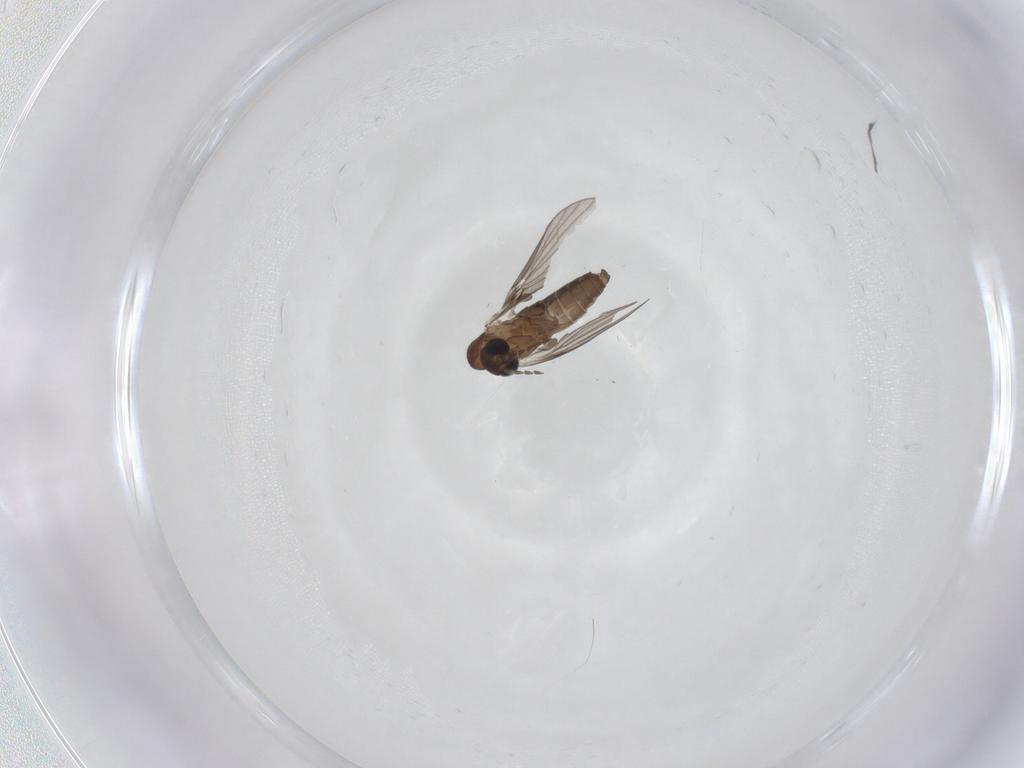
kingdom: Animalia
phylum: Arthropoda
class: Insecta
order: Diptera
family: Psychodidae
